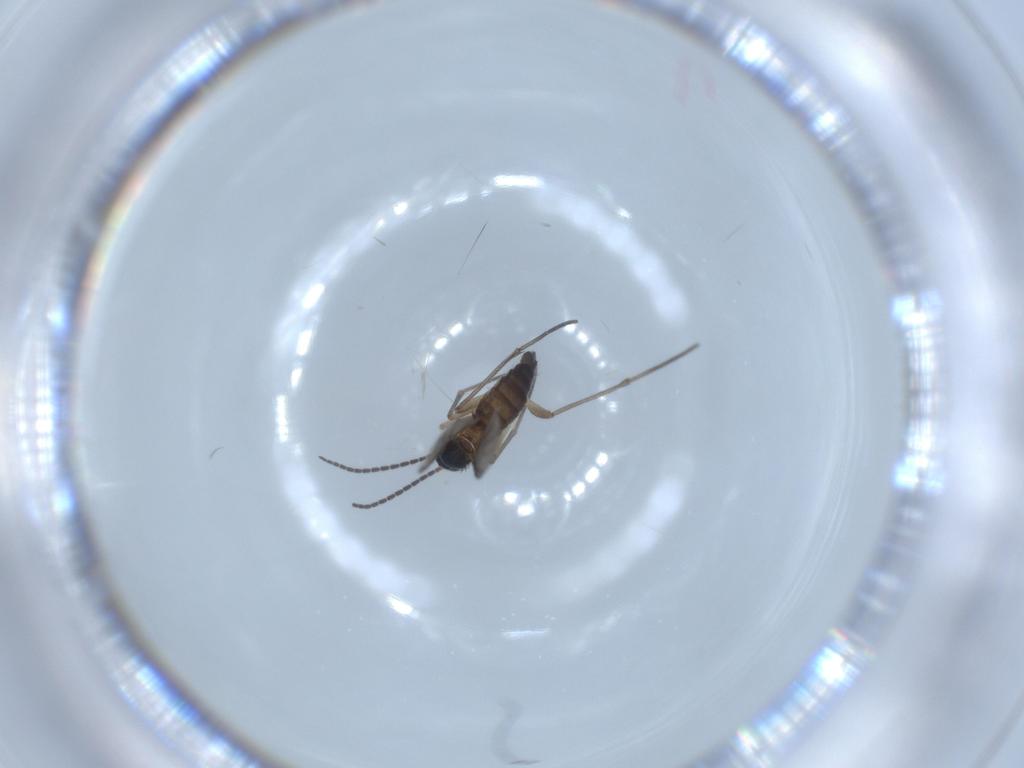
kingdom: Animalia
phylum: Arthropoda
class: Insecta
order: Diptera
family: Sciaridae
